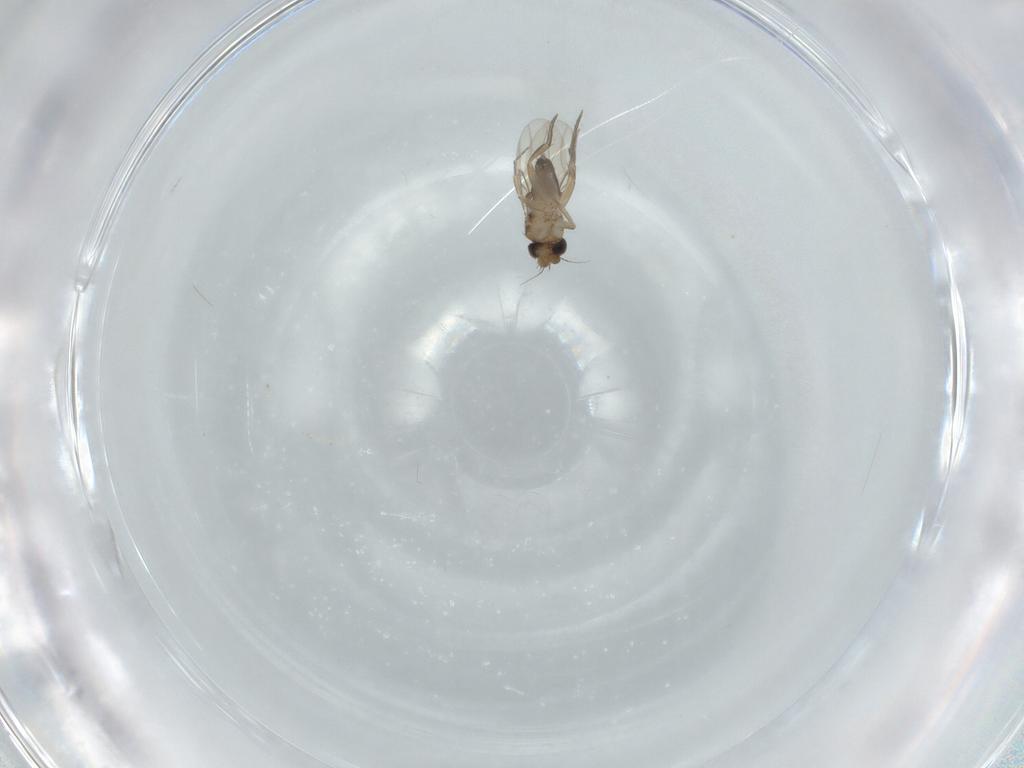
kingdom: Animalia
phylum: Arthropoda
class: Insecta
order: Diptera
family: Phoridae
